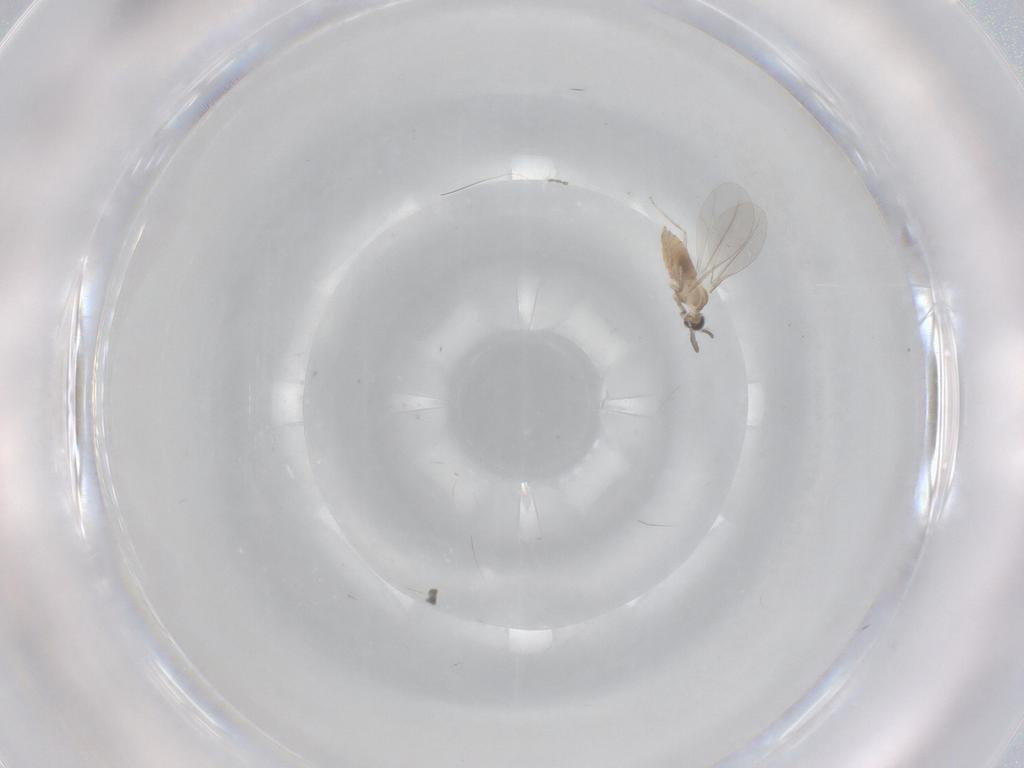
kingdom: Animalia
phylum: Arthropoda
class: Insecta
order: Diptera
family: Cecidomyiidae
